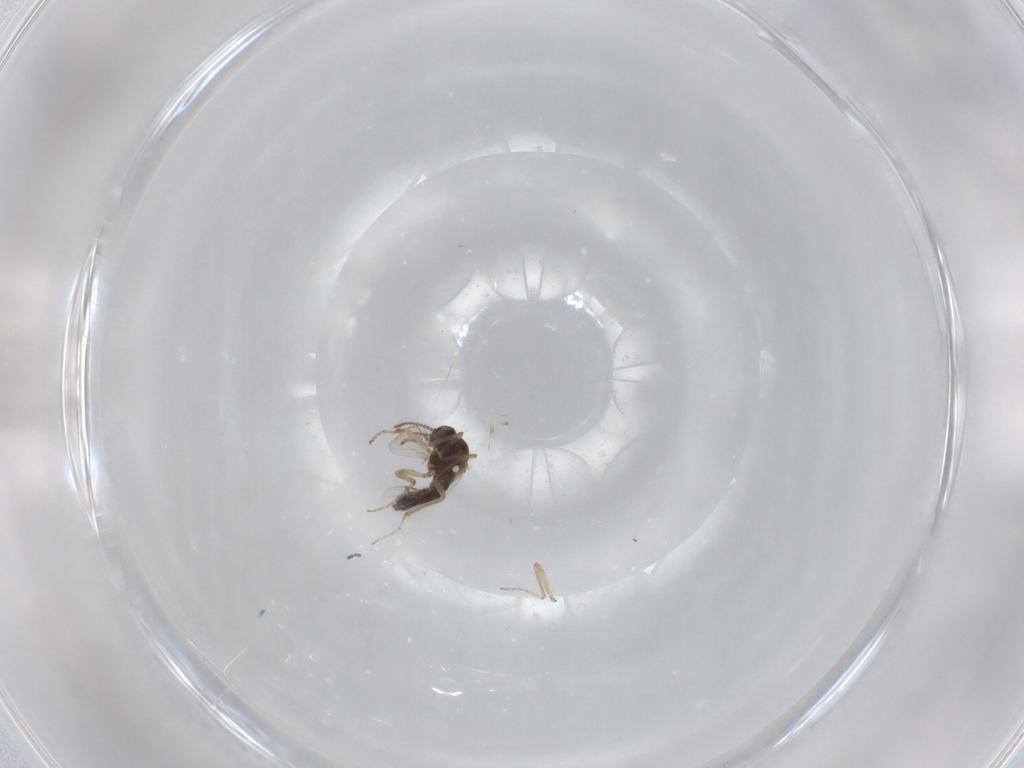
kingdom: Animalia
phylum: Arthropoda
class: Insecta
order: Diptera
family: Ceratopogonidae
